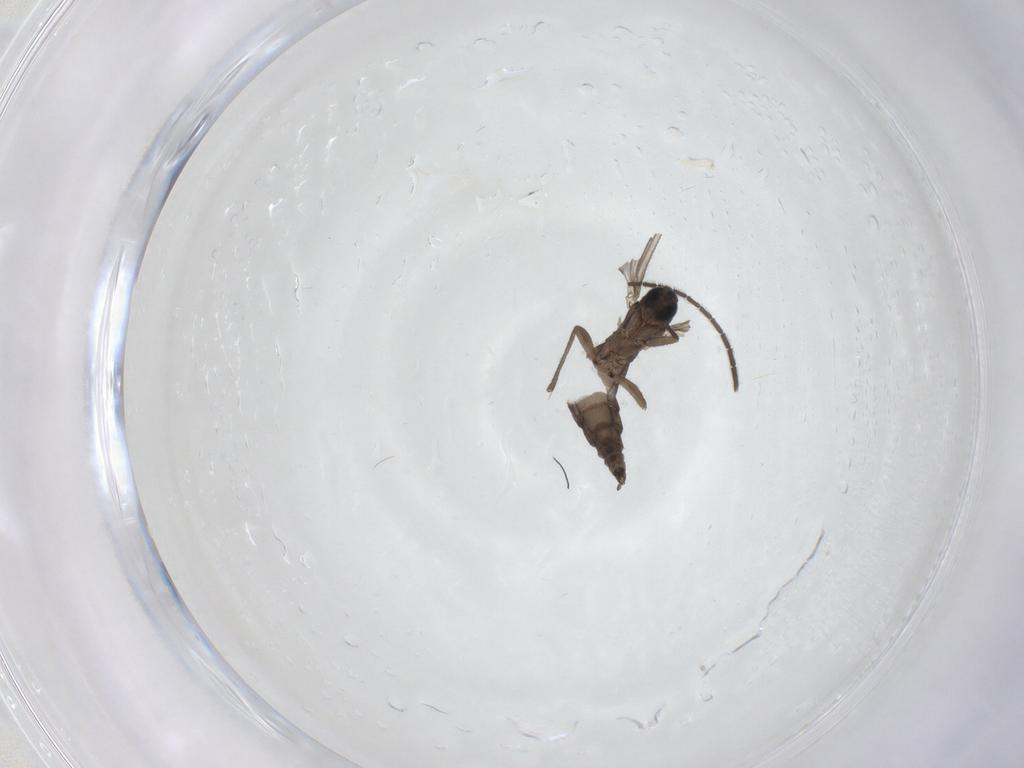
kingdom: Animalia
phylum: Arthropoda
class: Insecta
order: Diptera
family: Sciaridae
